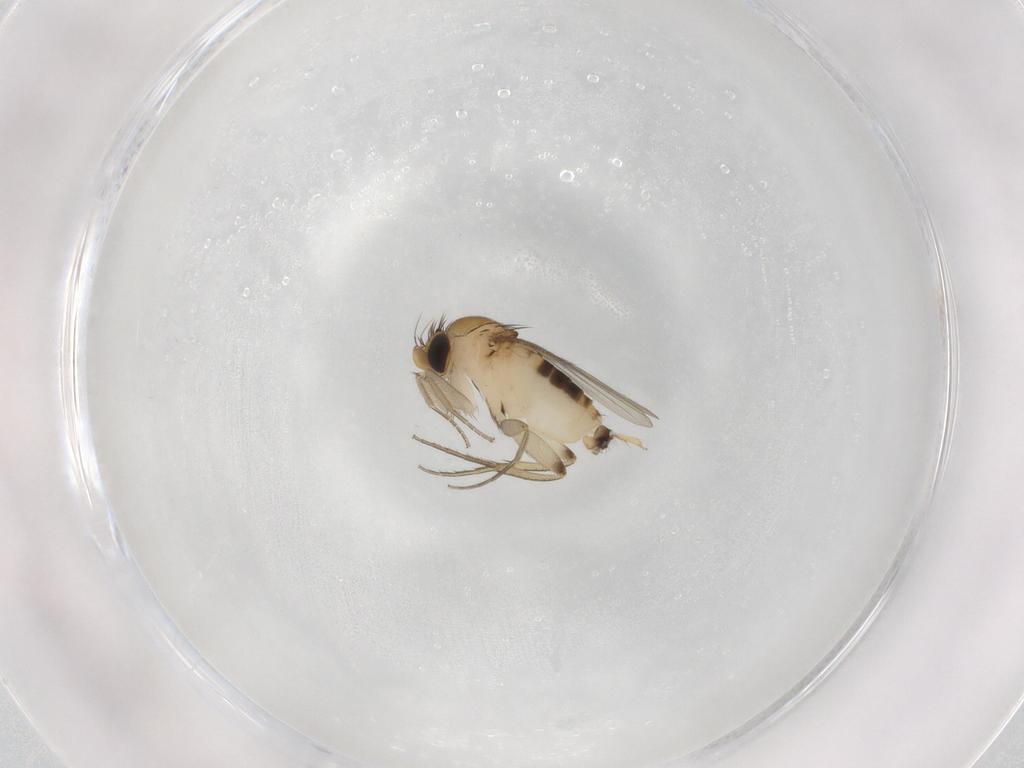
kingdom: Animalia
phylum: Arthropoda
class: Insecta
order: Diptera
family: Phoridae
